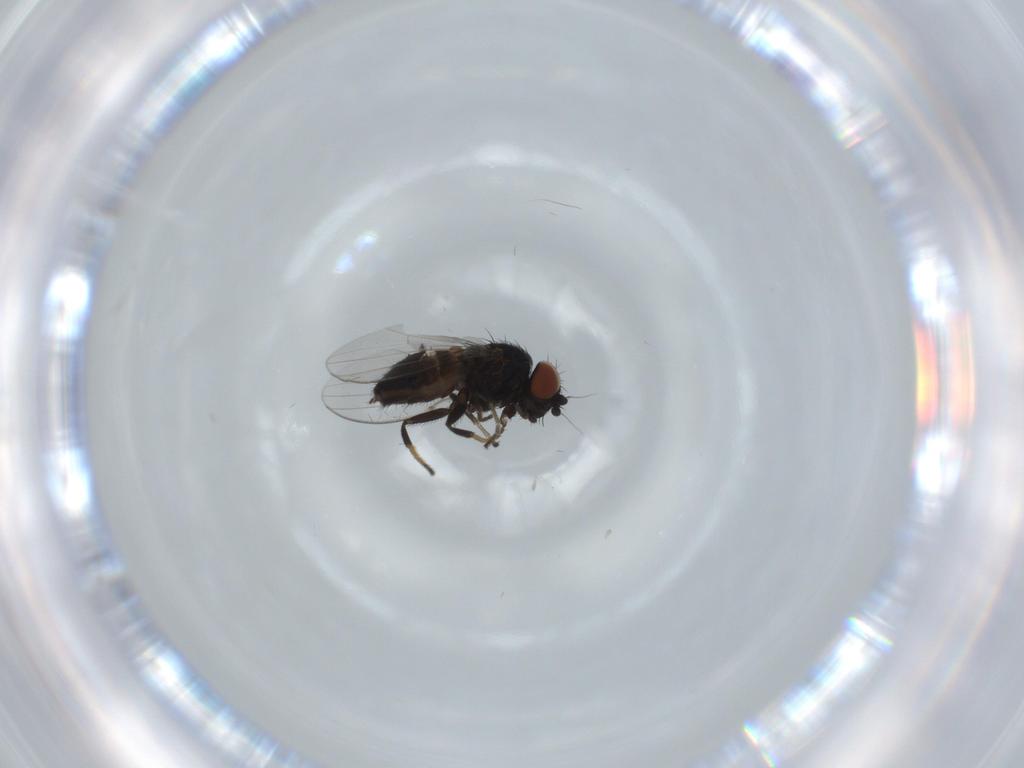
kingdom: Animalia
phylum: Arthropoda
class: Insecta
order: Diptera
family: Milichiidae
